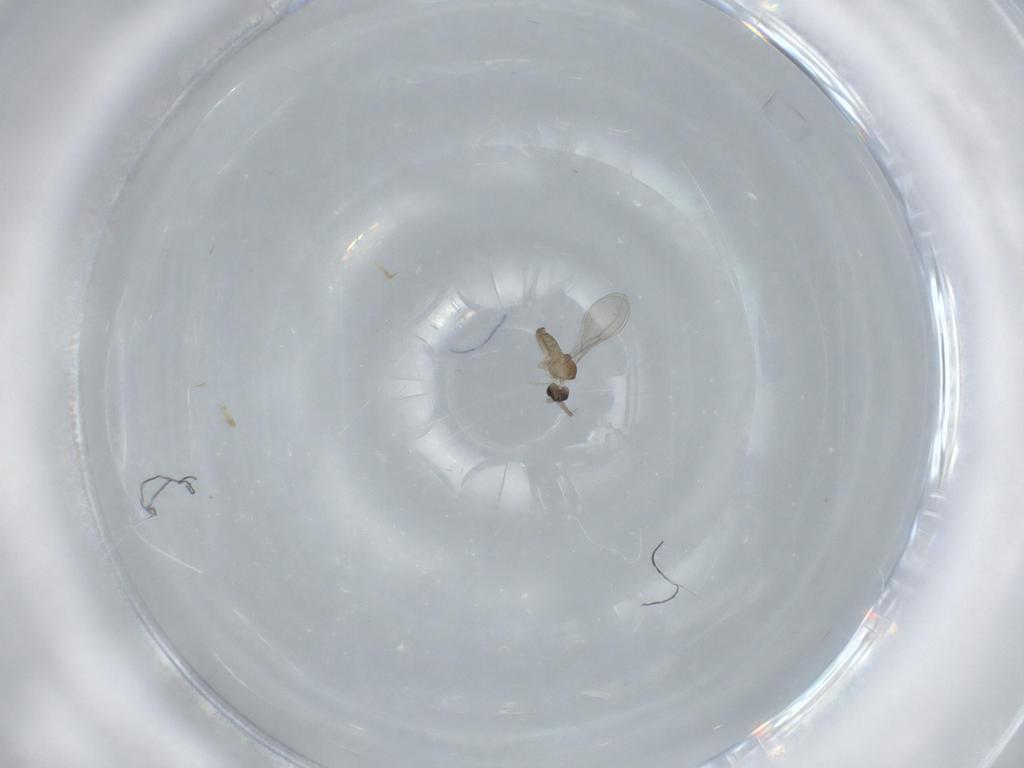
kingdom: Animalia
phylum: Arthropoda
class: Insecta
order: Diptera
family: Cecidomyiidae
